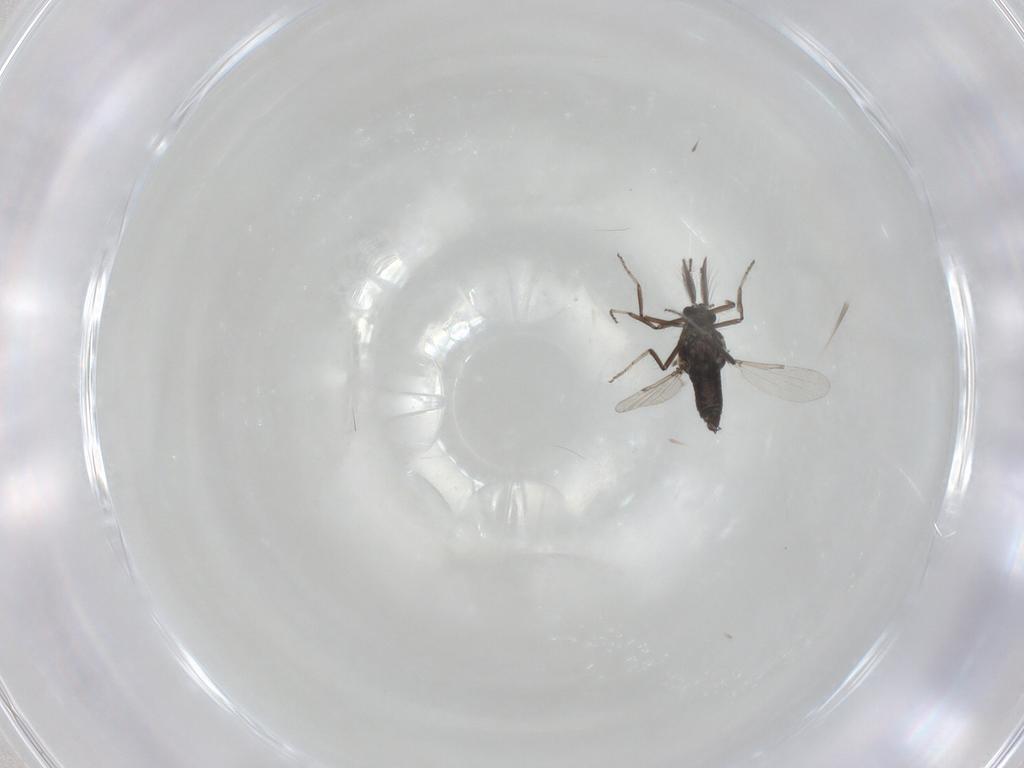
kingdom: Animalia
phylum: Arthropoda
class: Insecta
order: Diptera
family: Ceratopogonidae
